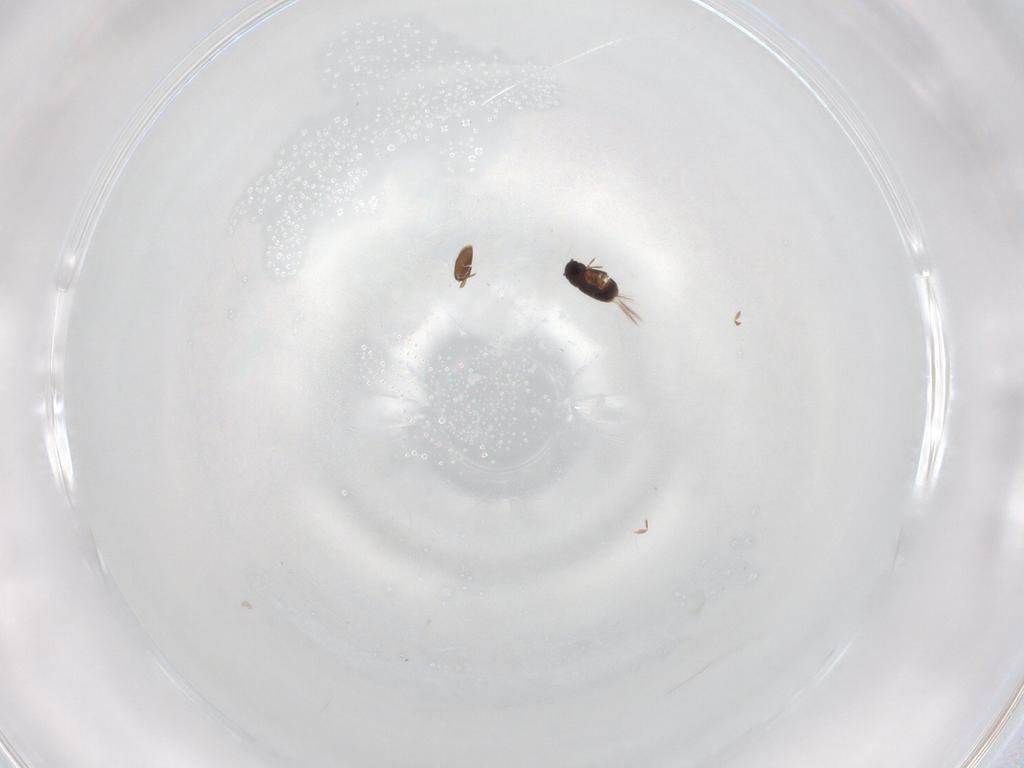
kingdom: Animalia
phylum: Arthropoda
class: Insecta
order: Coleoptera
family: Ptiliidae
